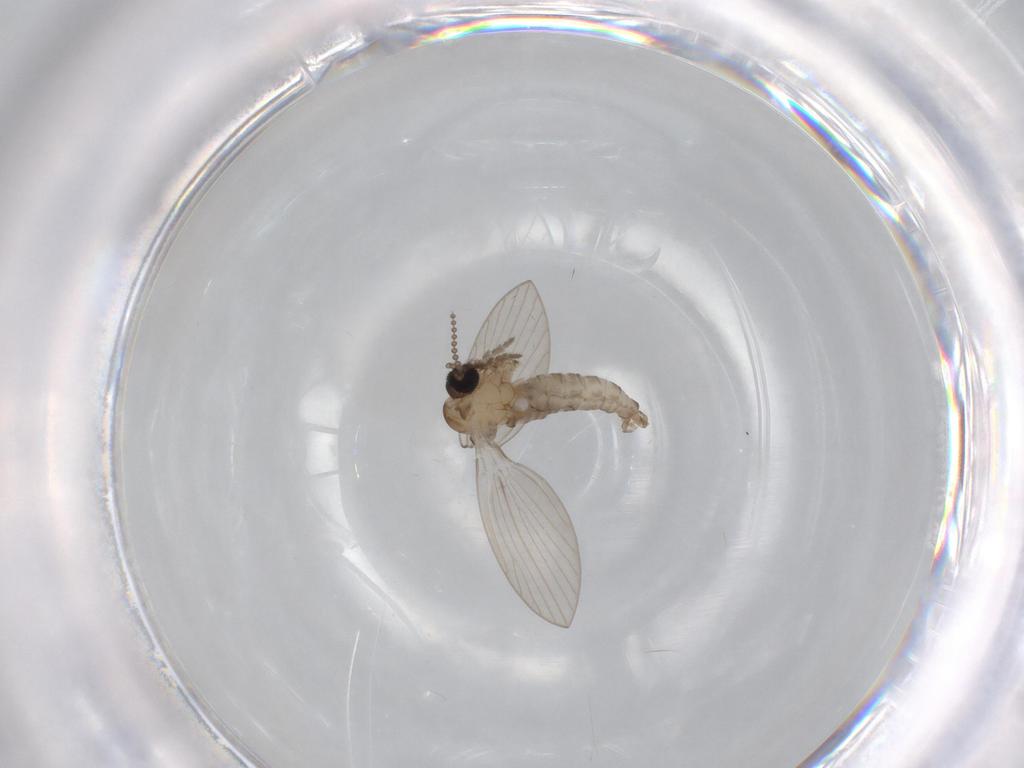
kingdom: Animalia
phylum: Arthropoda
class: Insecta
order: Diptera
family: Psychodidae
